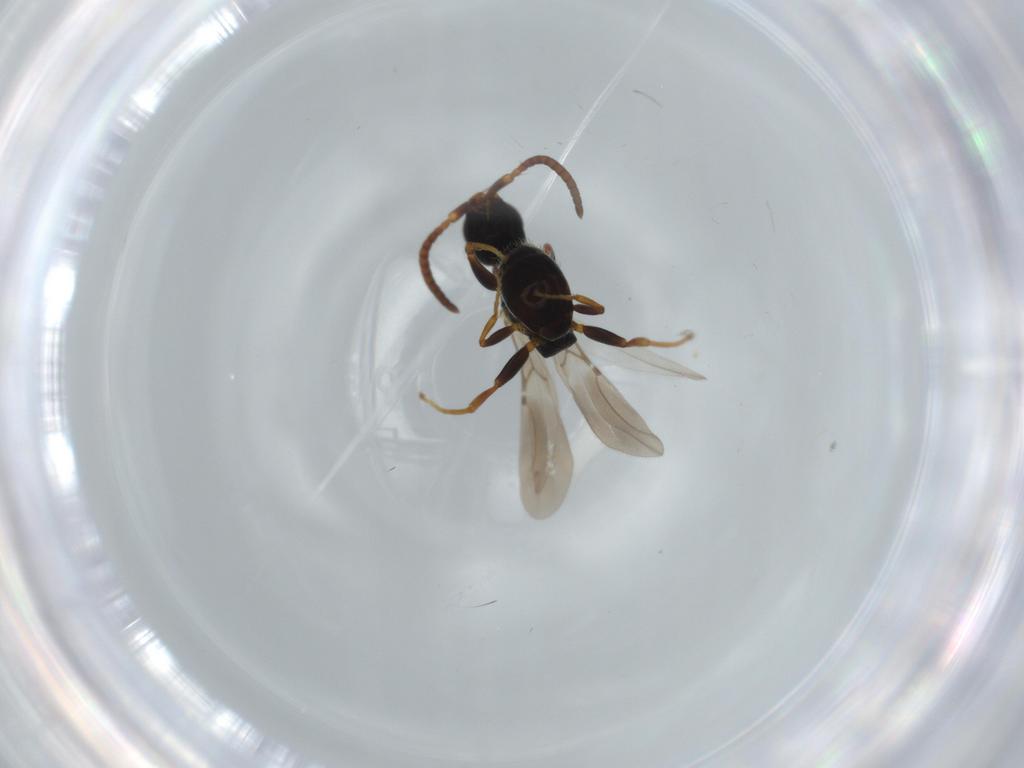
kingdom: Animalia
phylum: Arthropoda
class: Insecta
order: Hymenoptera
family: Bethylidae
